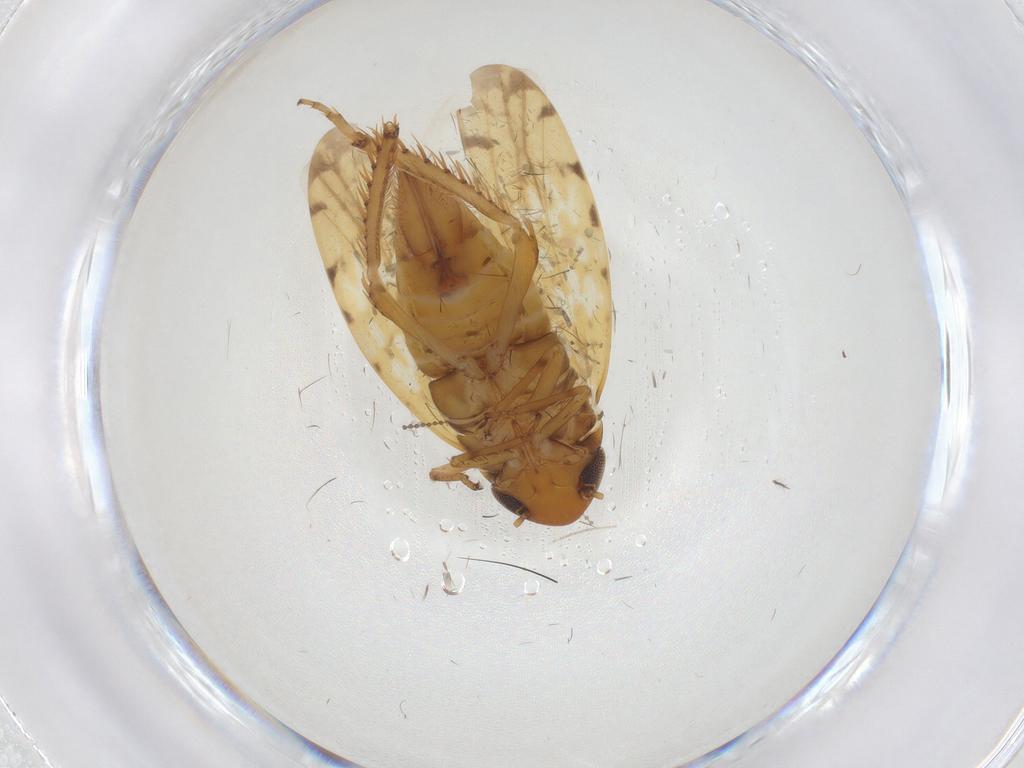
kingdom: Animalia
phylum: Arthropoda
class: Insecta
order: Hemiptera
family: Cicadellidae
